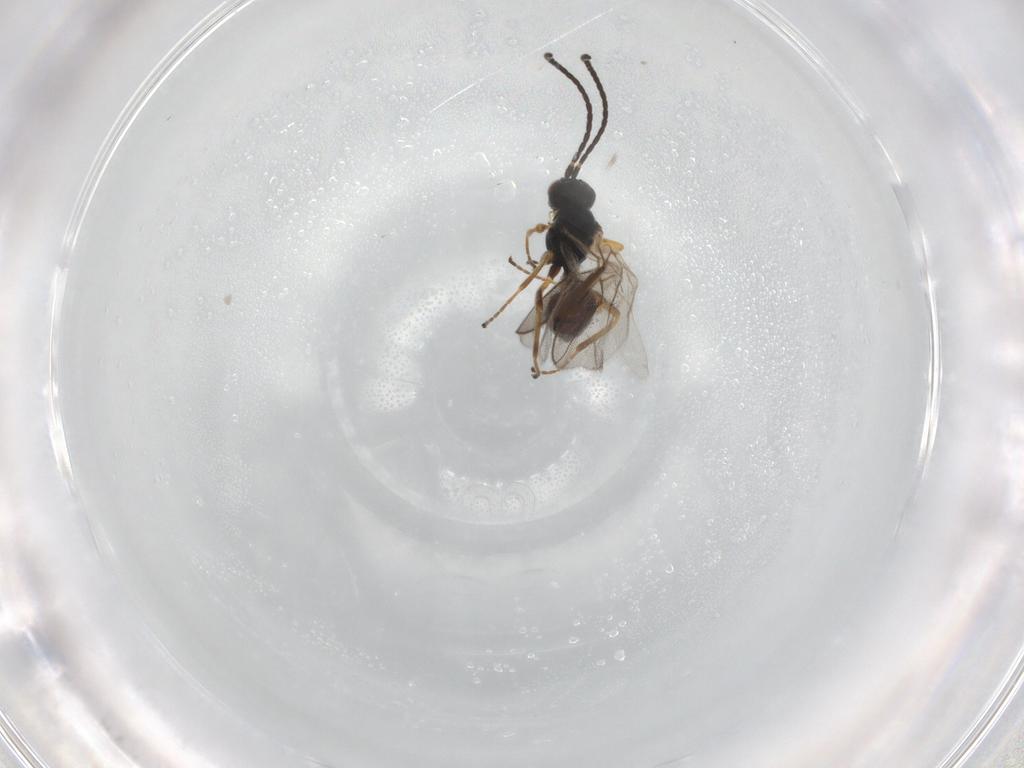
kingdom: Animalia
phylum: Arthropoda
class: Insecta
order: Hymenoptera
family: Braconidae
